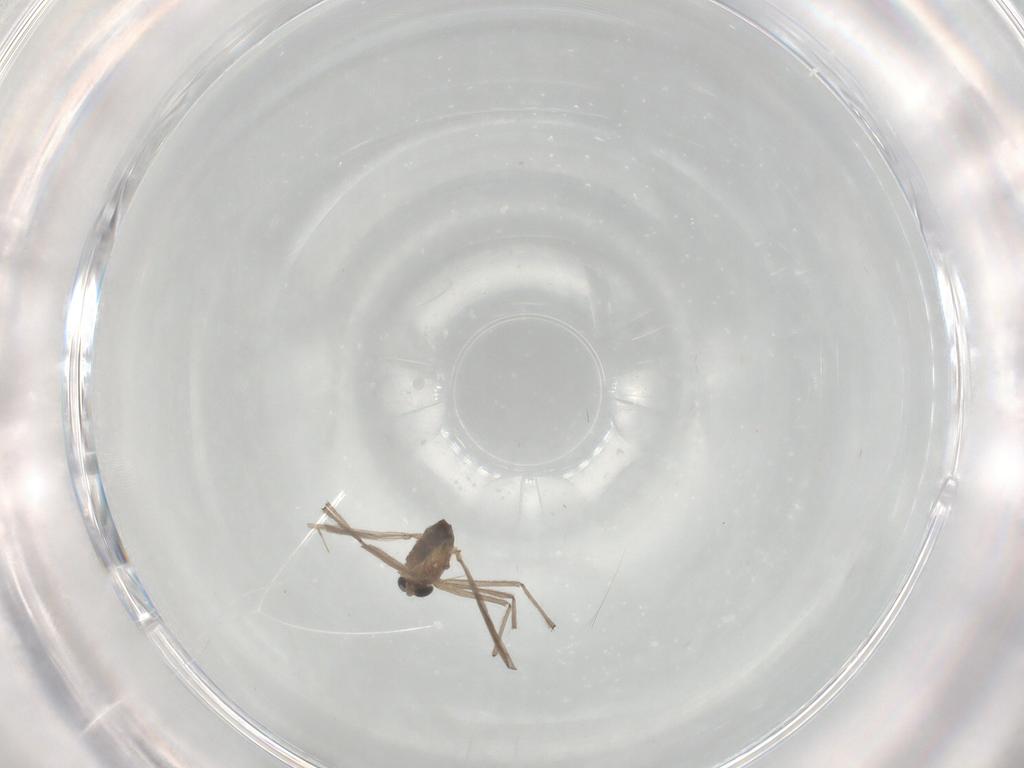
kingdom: Animalia
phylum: Arthropoda
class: Insecta
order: Diptera
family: Chironomidae
